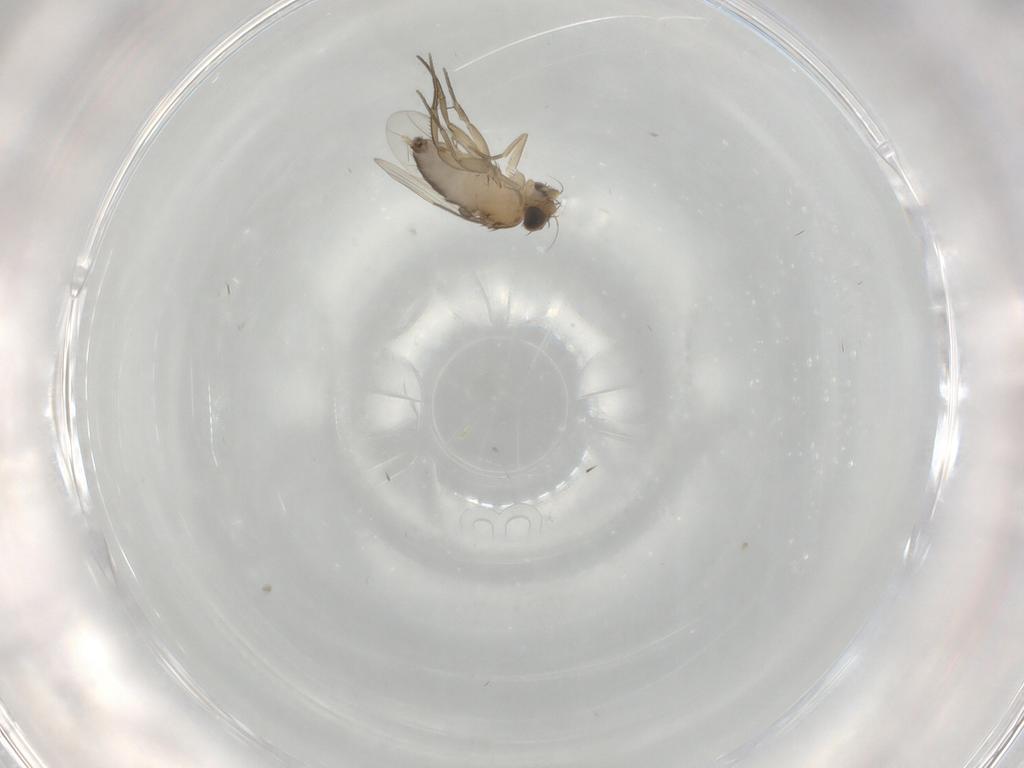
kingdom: Animalia
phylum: Arthropoda
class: Insecta
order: Diptera
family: Phoridae
